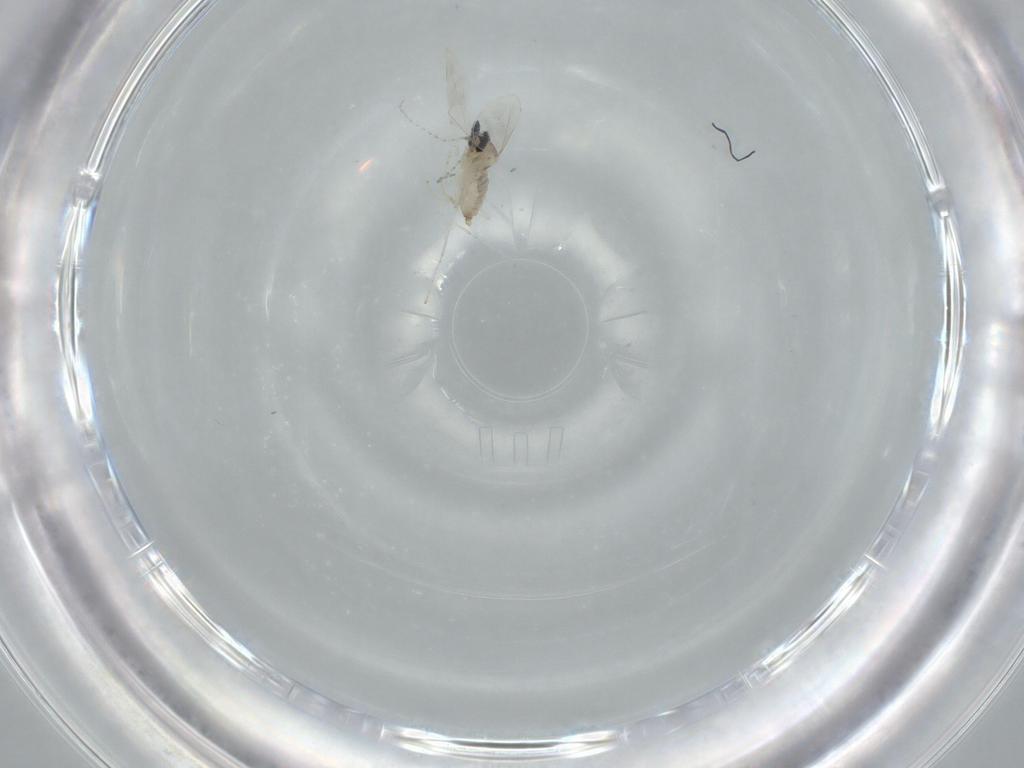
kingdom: Animalia
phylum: Arthropoda
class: Insecta
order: Diptera
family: Cecidomyiidae
